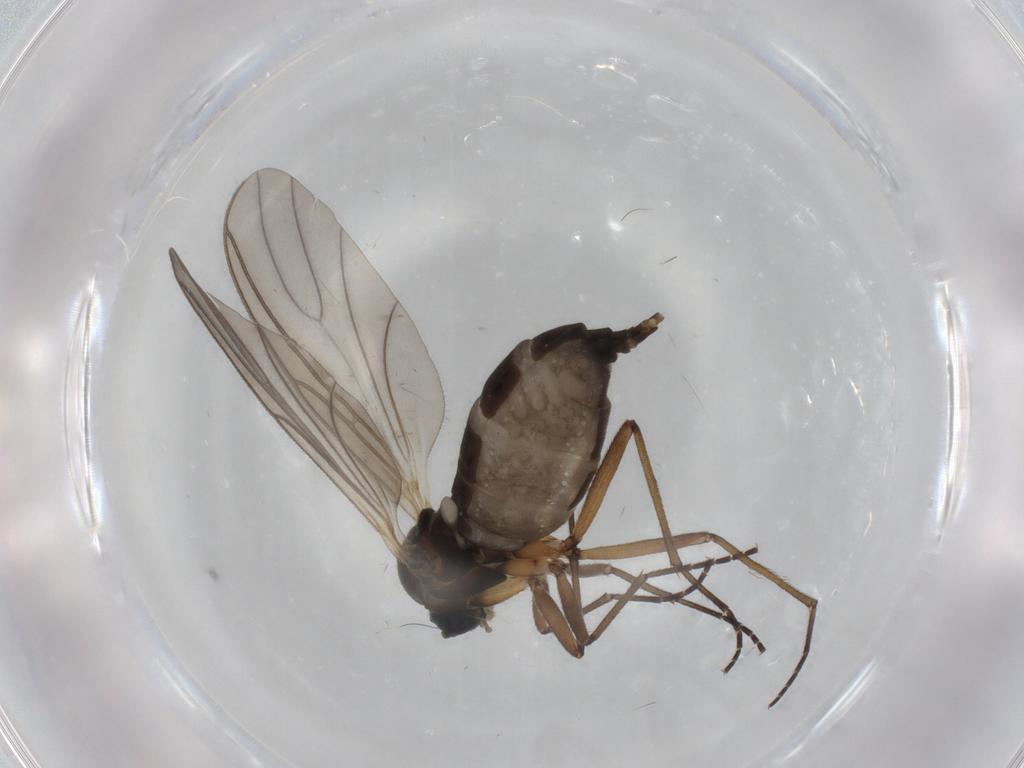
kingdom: Animalia
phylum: Arthropoda
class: Insecta
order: Diptera
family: Sciaridae
